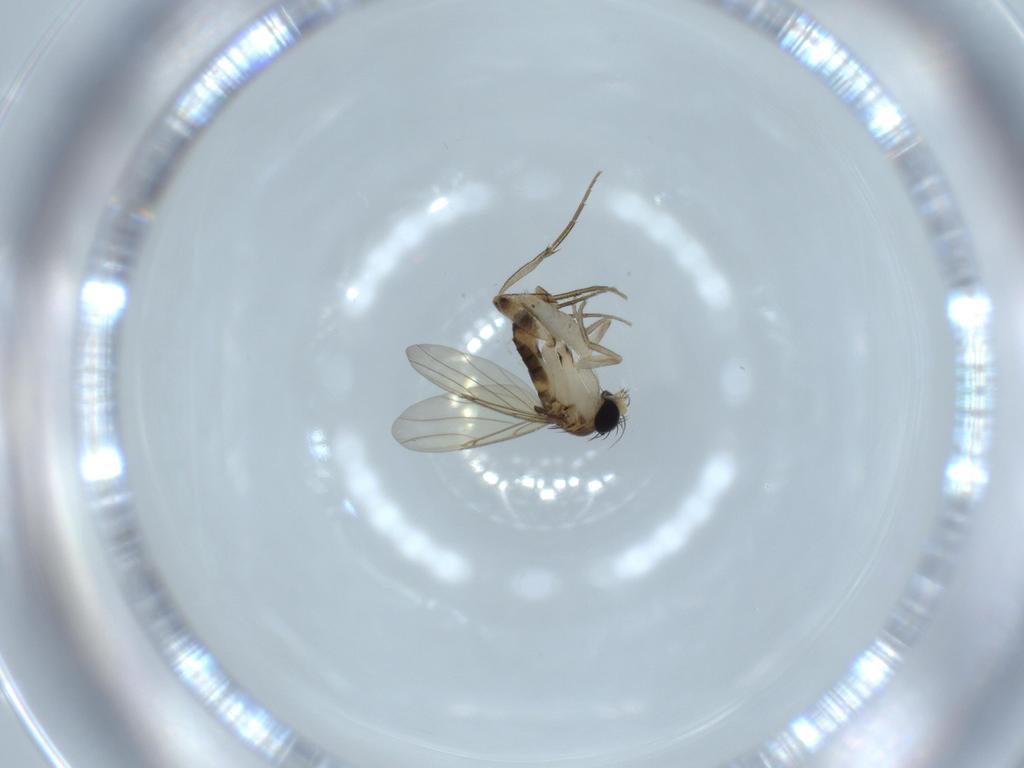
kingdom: Animalia
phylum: Arthropoda
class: Insecta
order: Diptera
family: Phoridae
